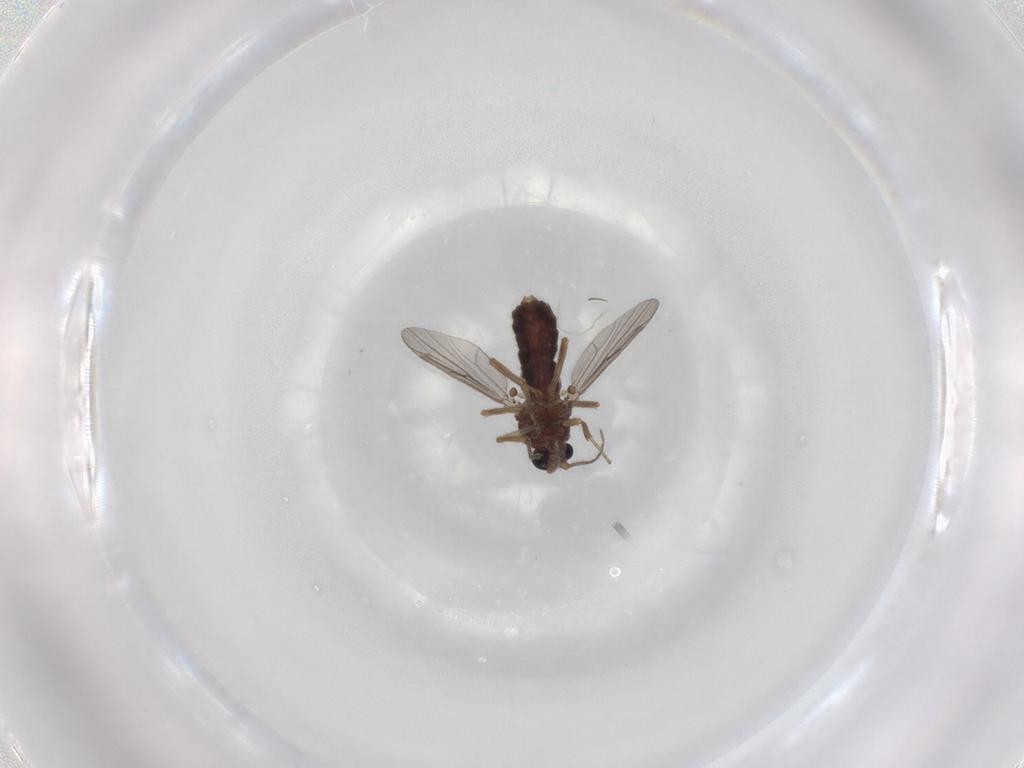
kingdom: Animalia
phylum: Arthropoda
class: Insecta
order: Diptera
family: Ceratopogonidae
